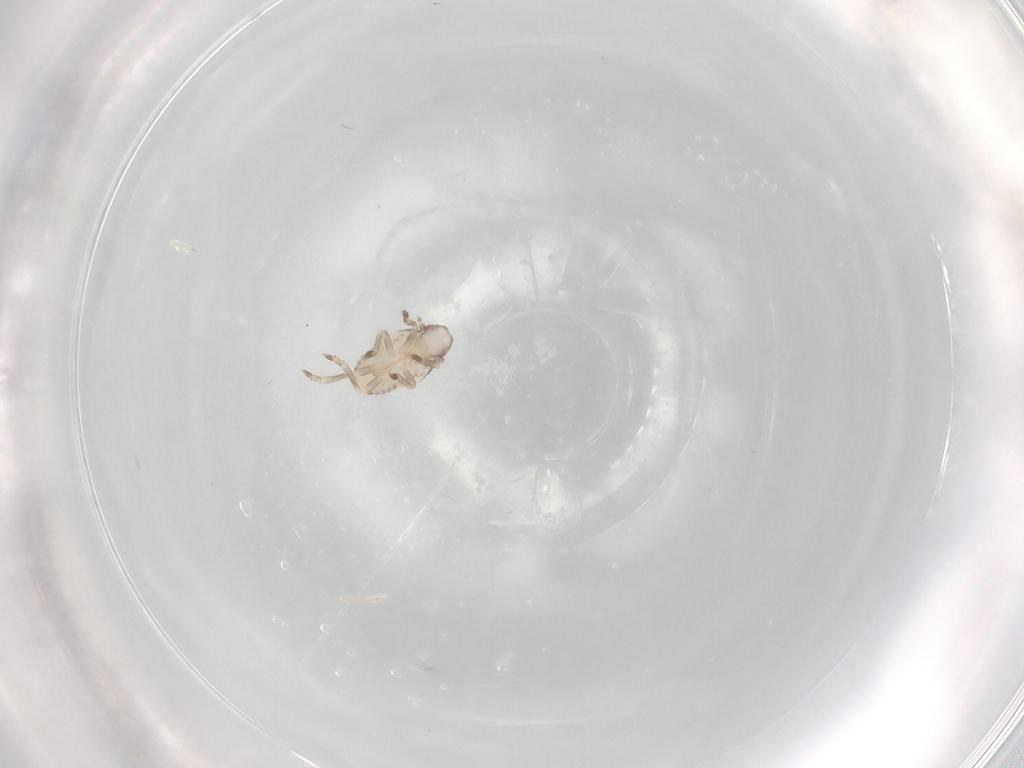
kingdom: Animalia
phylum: Arthropoda
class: Insecta
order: Hemiptera
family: Flatidae
